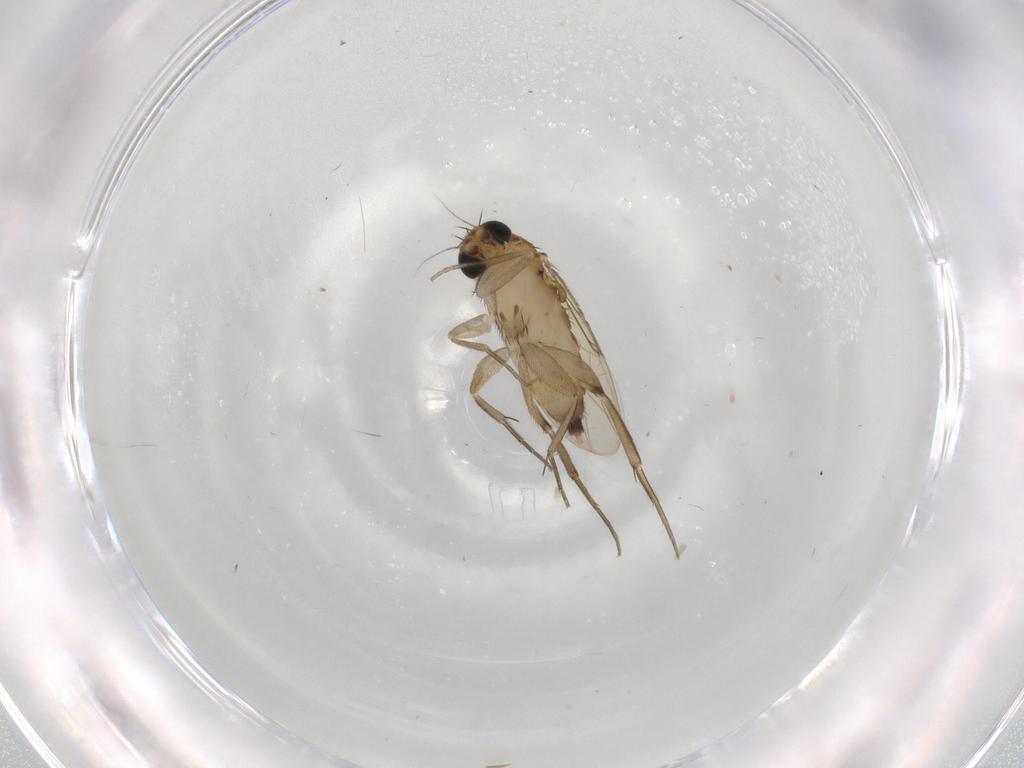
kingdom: Animalia
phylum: Arthropoda
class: Insecta
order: Diptera
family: Phoridae
